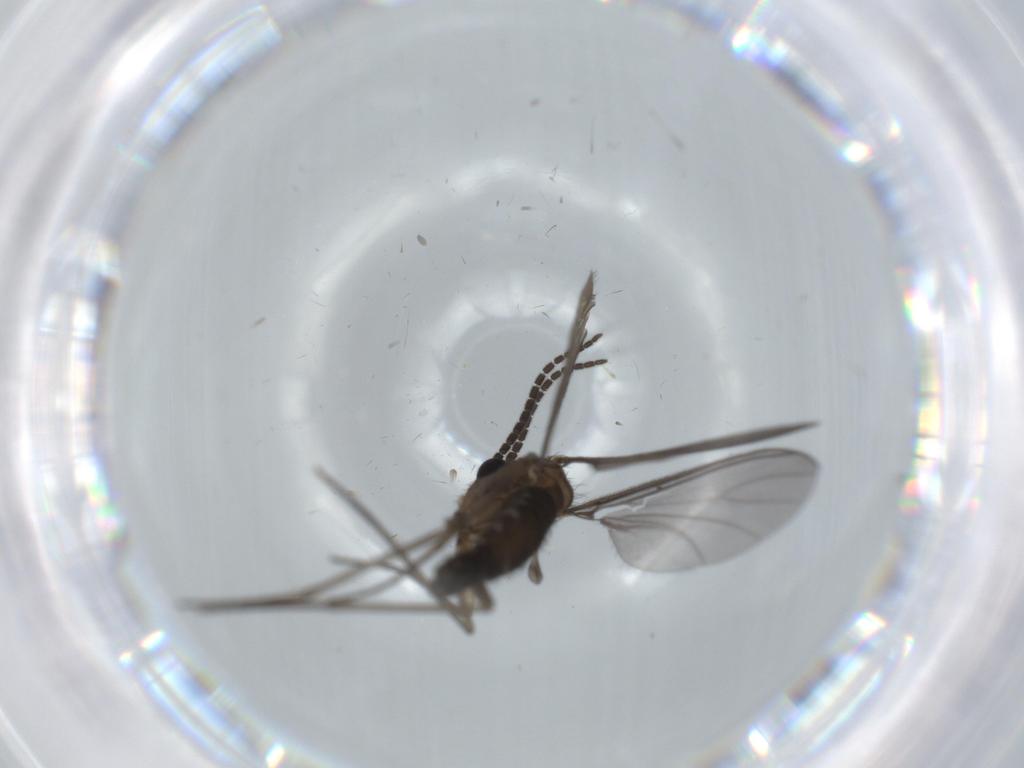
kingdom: Animalia
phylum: Arthropoda
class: Insecta
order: Diptera
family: Sciaridae
